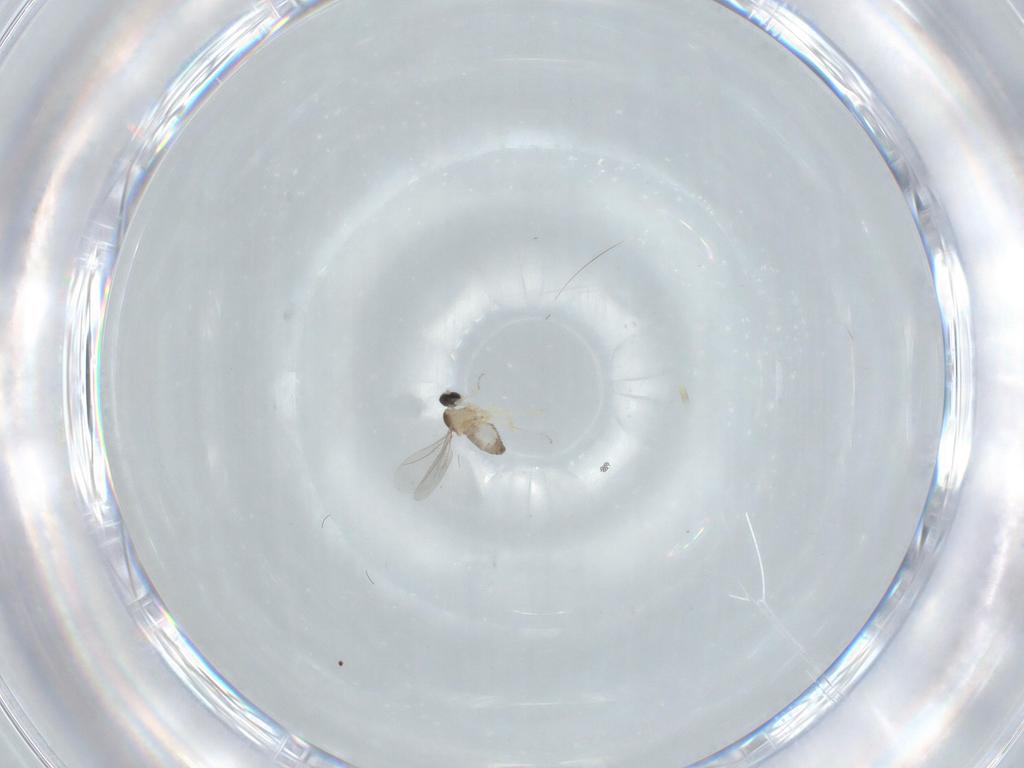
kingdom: Animalia
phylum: Arthropoda
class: Insecta
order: Diptera
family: Cecidomyiidae
